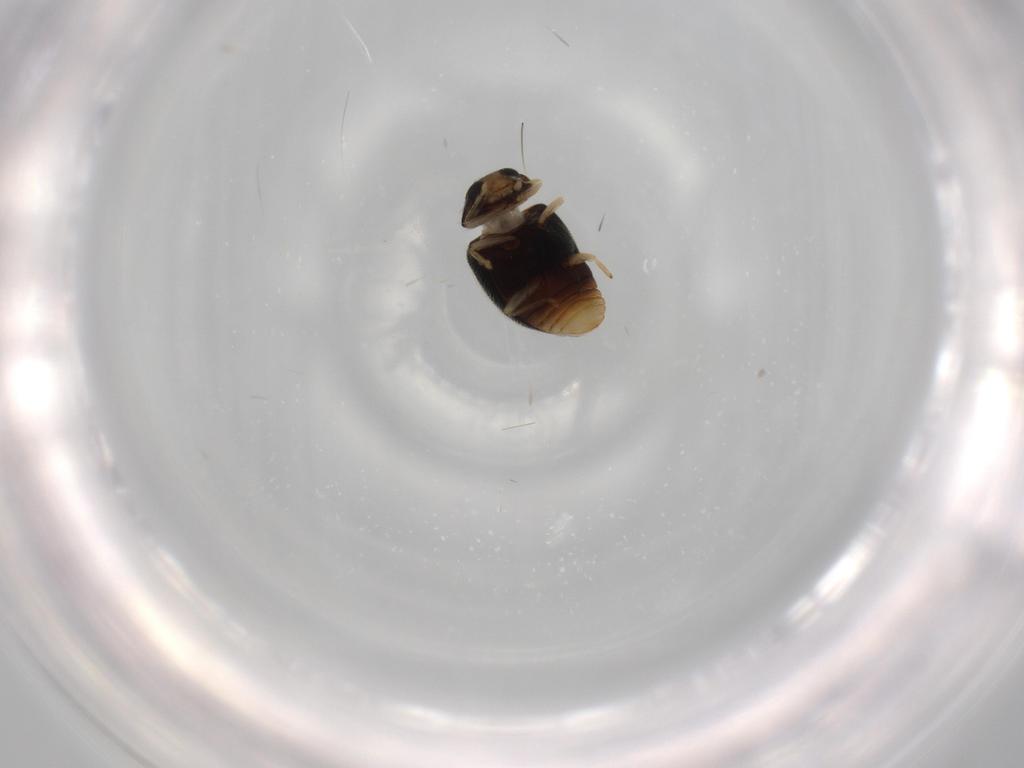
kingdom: Animalia
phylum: Arthropoda
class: Insecta
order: Coleoptera
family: Coccinellidae
